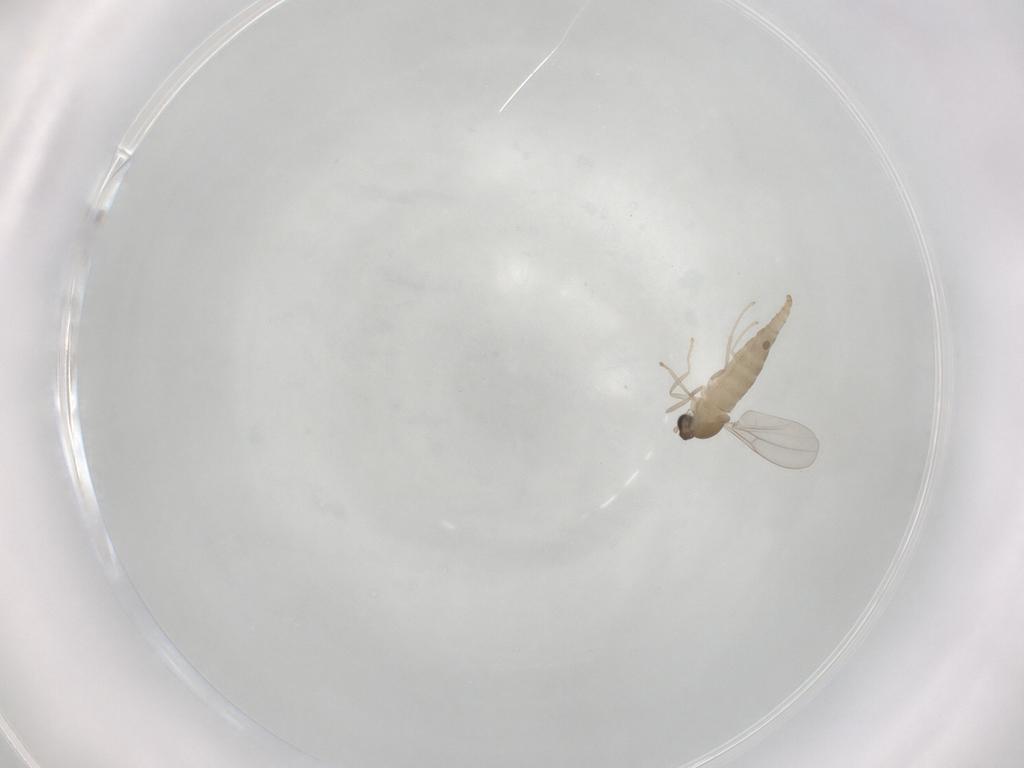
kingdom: Animalia
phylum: Arthropoda
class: Insecta
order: Diptera
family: Cecidomyiidae
